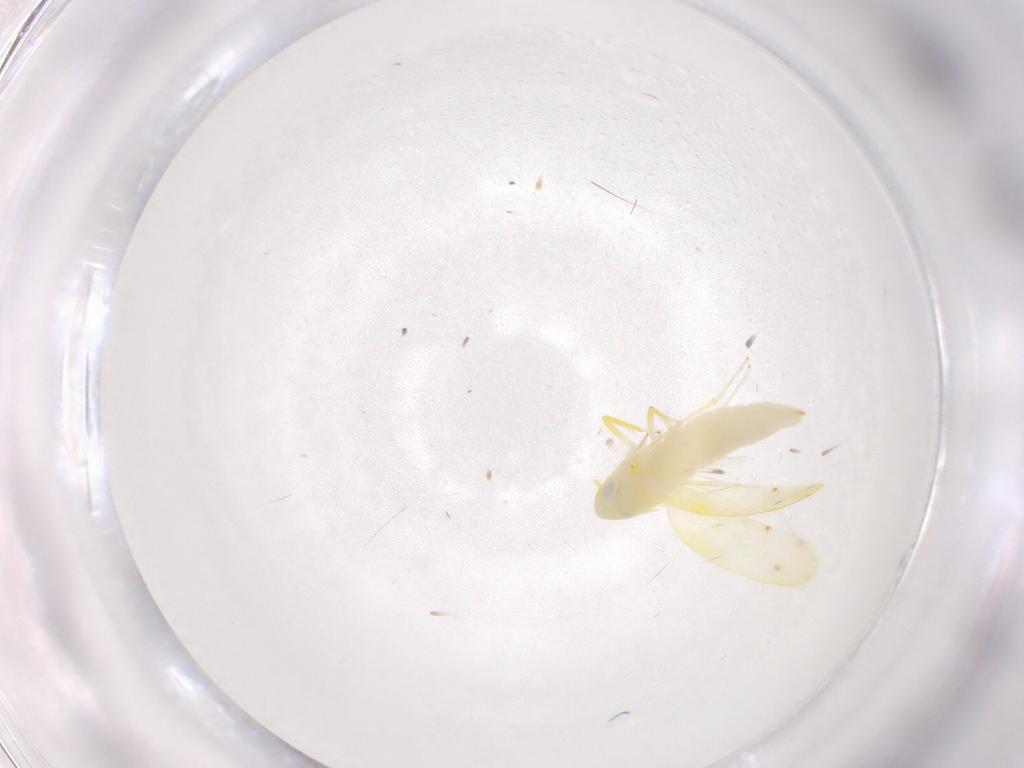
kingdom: Animalia
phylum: Arthropoda
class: Insecta
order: Hemiptera
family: Cicadellidae
